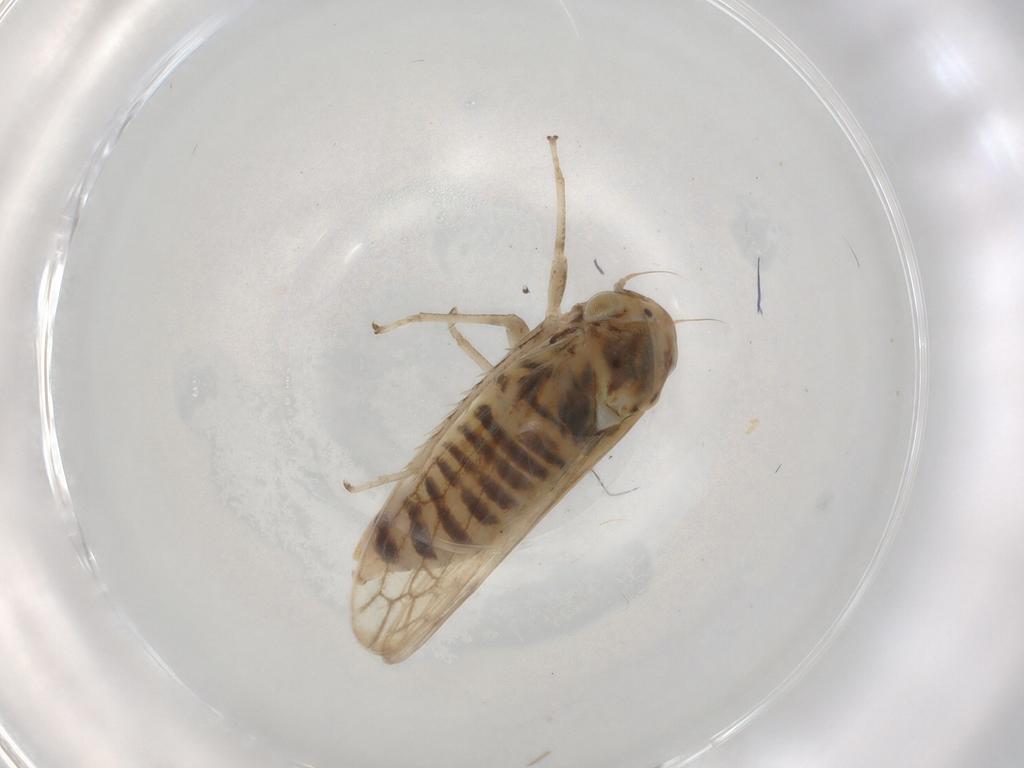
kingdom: Animalia
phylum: Arthropoda
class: Insecta
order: Hemiptera
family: Cicadellidae
